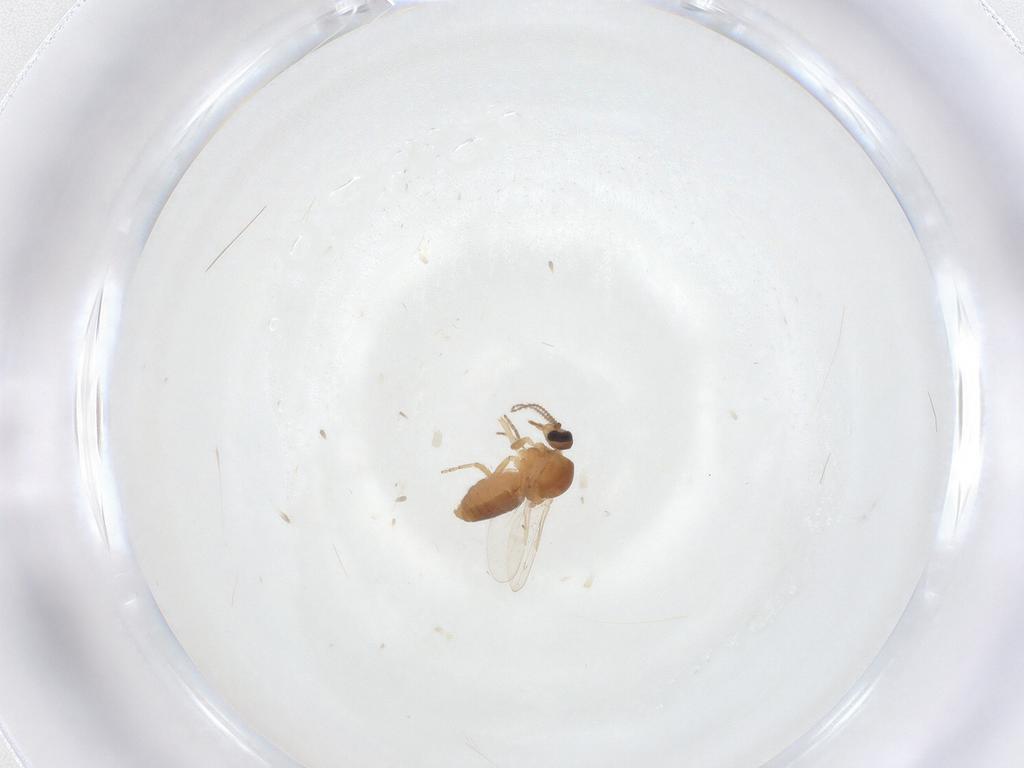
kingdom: Animalia
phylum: Arthropoda
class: Insecta
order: Diptera
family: Ceratopogonidae
